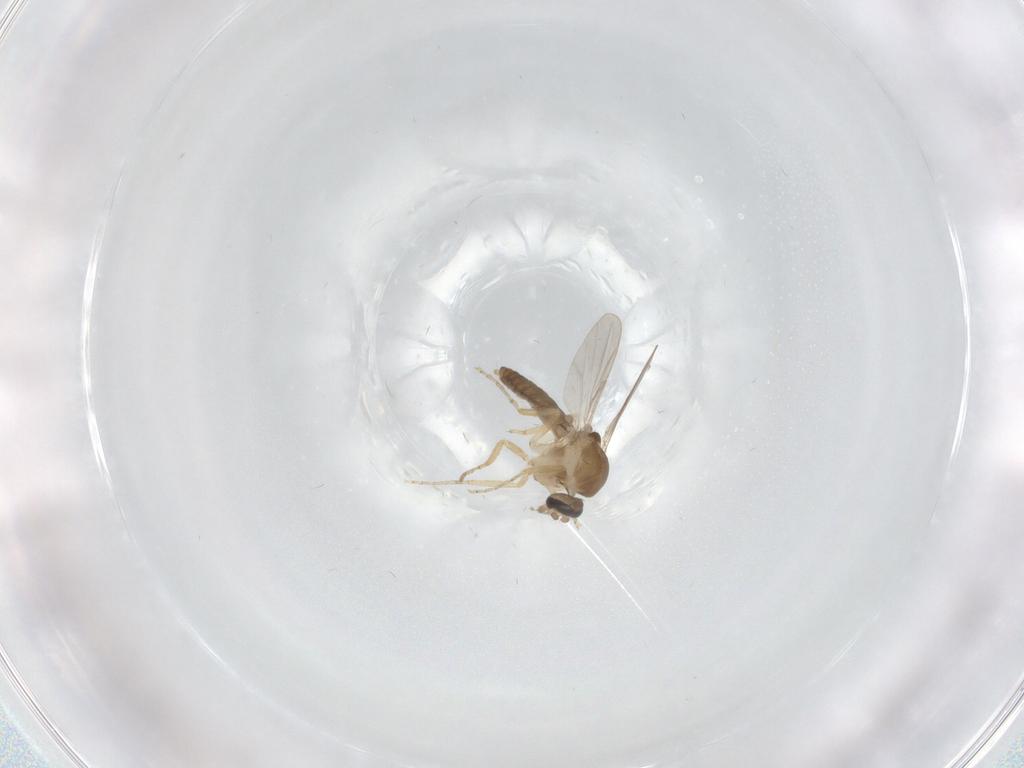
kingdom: Animalia
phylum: Arthropoda
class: Insecta
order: Diptera
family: Ceratopogonidae
